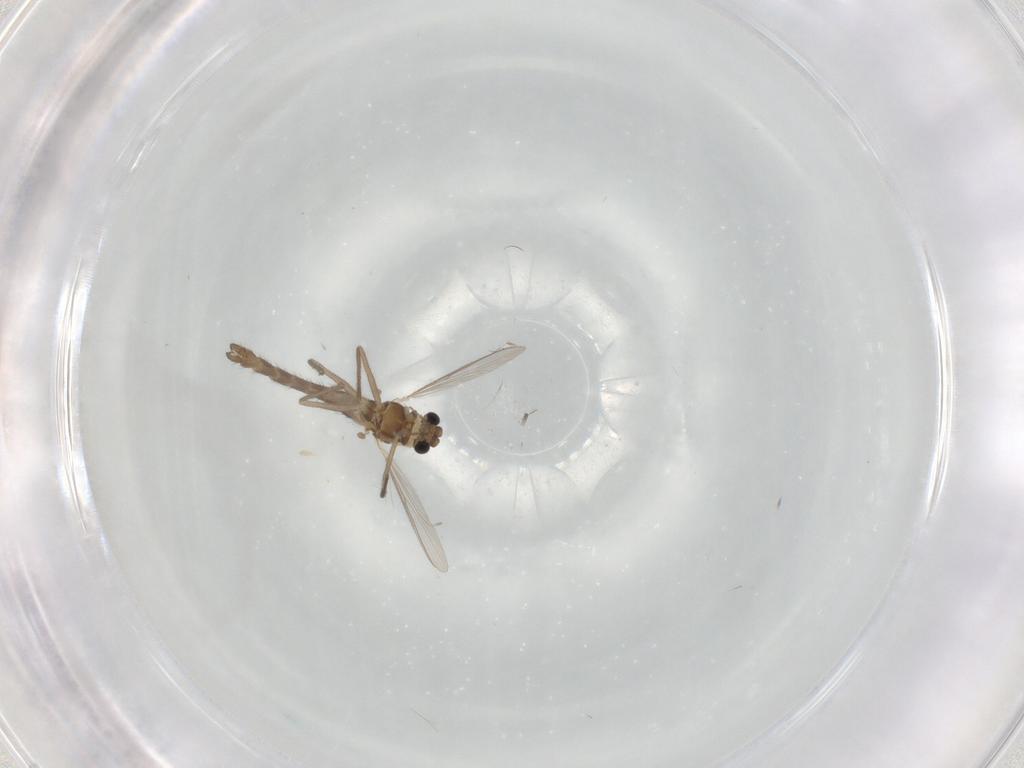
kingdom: Animalia
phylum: Arthropoda
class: Insecta
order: Diptera
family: Chironomidae
